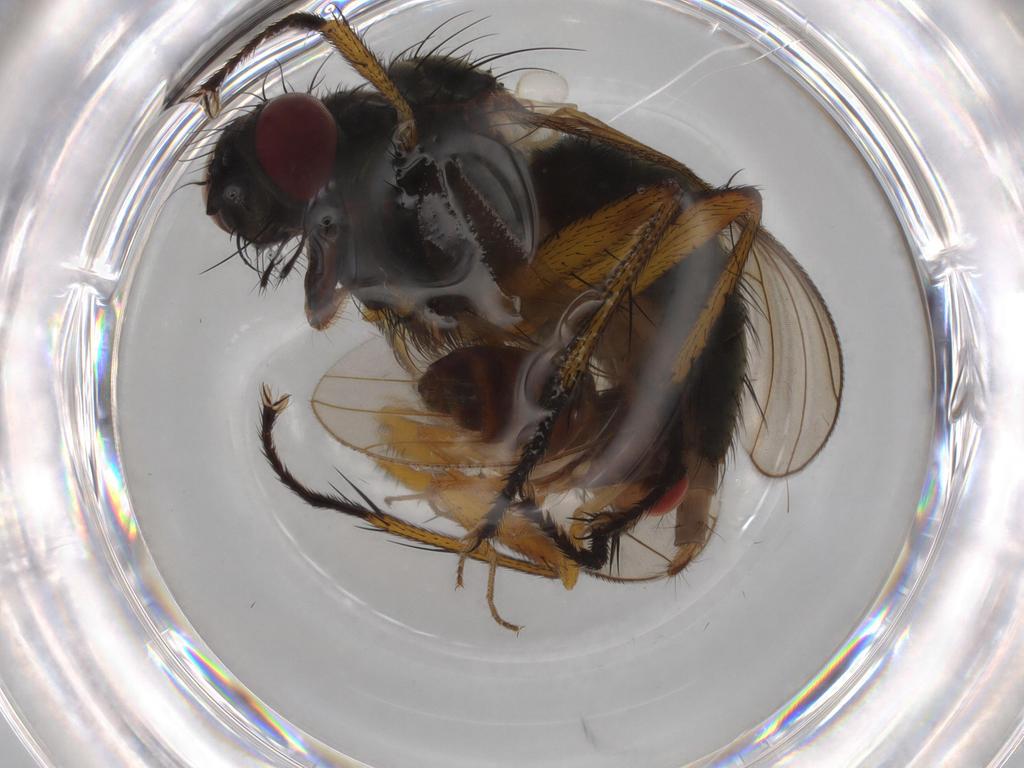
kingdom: Animalia
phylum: Arthropoda
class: Insecta
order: Diptera
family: Drosophilidae
